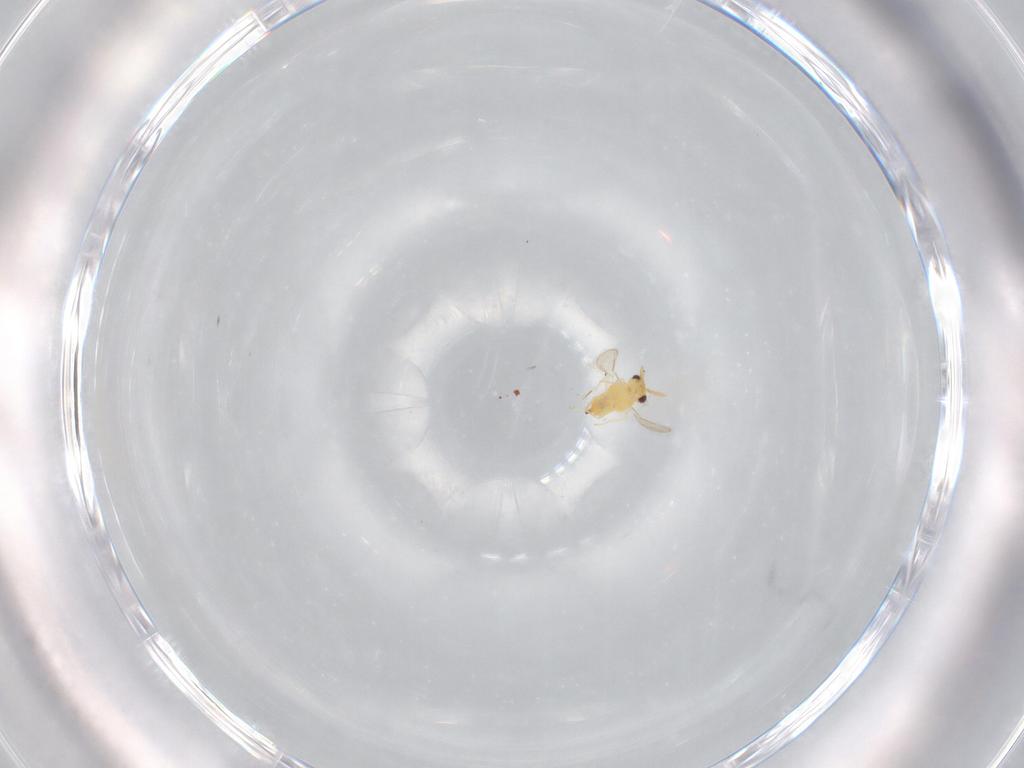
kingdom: Animalia
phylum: Arthropoda
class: Insecta
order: Hymenoptera
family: Aphelinidae
